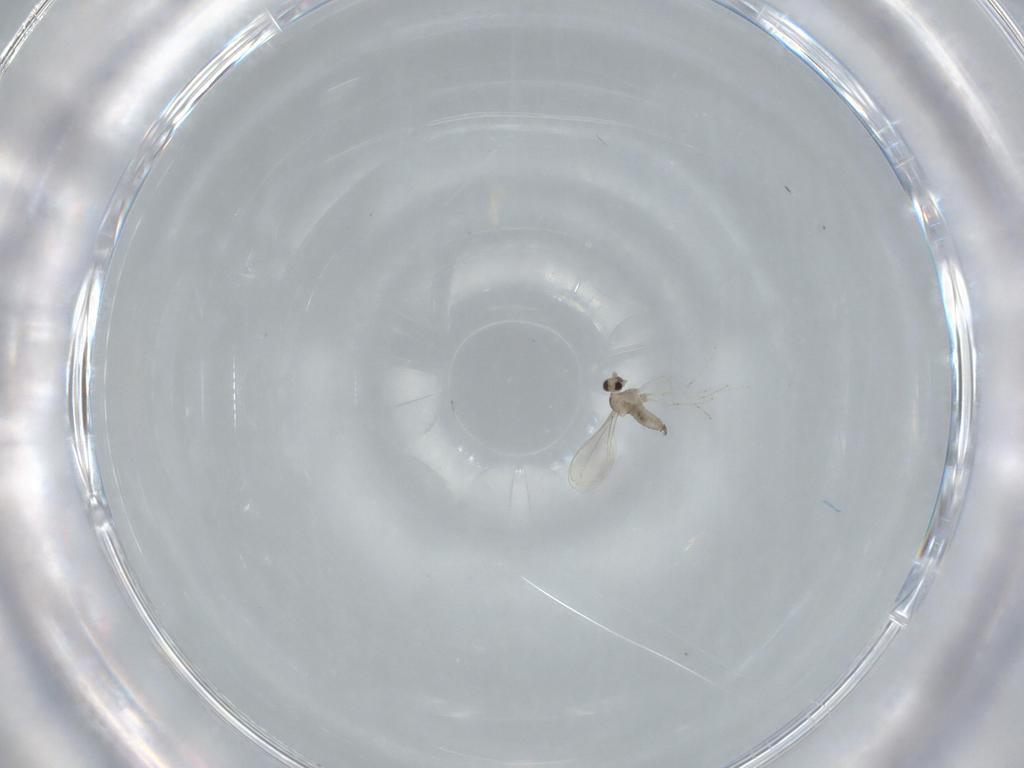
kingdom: Animalia
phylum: Arthropoda
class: Insecta
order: Diptera
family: Cecidomyiidae
